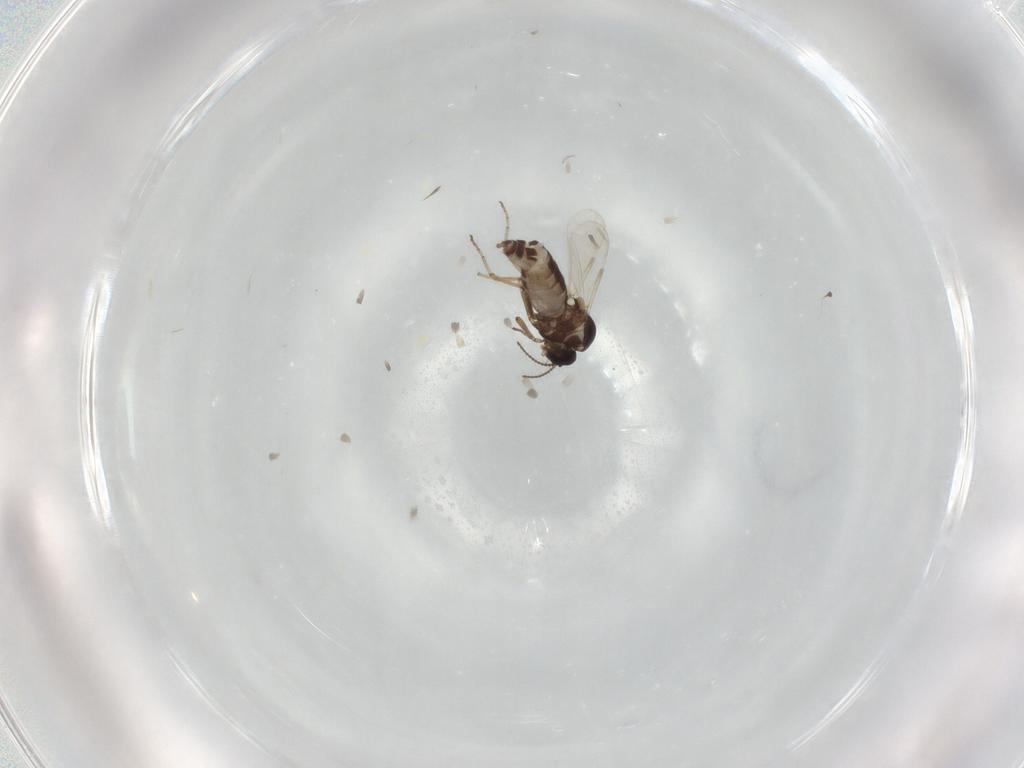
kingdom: Animalia
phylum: Arthropoda
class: Insecta
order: Diptera
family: Ceratopogonidae
